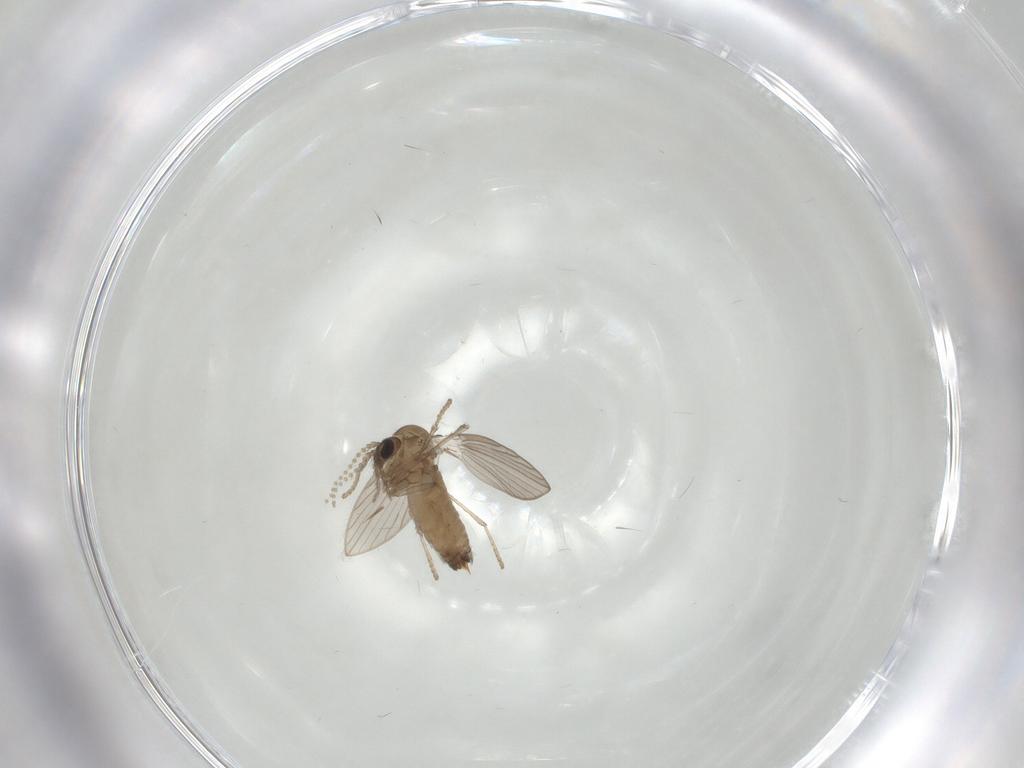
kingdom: Animalia
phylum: Arthropoda
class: Insecta
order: Diptera
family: Psychodidae
